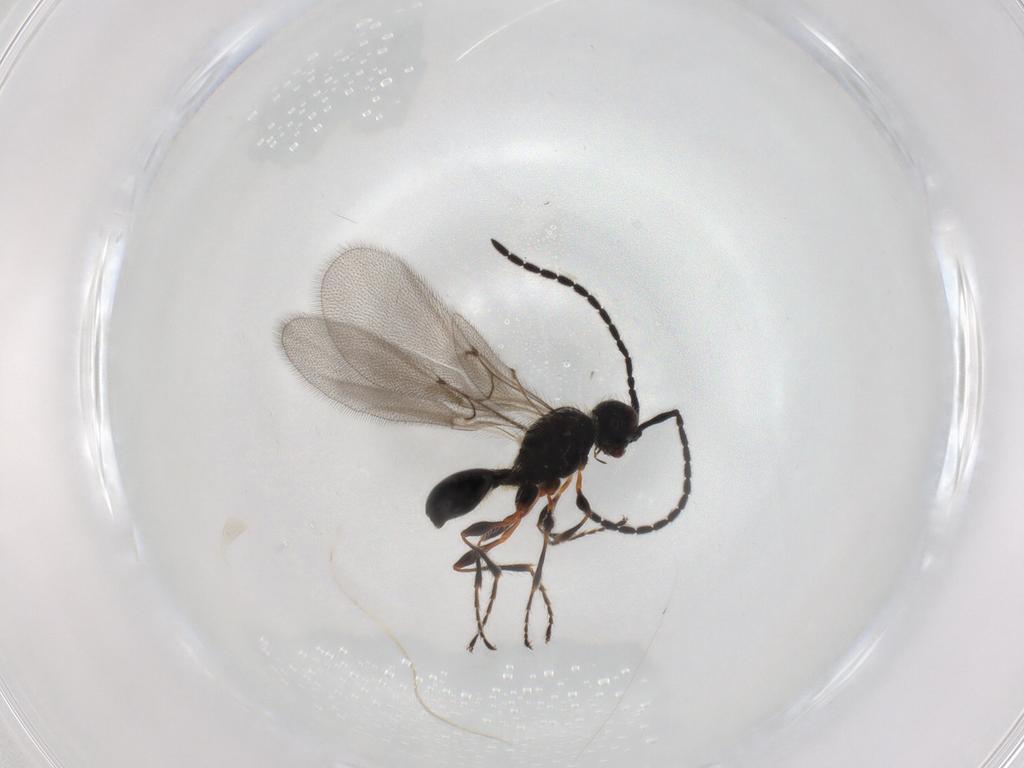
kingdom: Animalia
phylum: Arthropoda
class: Insecta
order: Hymenoptera
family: Diapriidae
